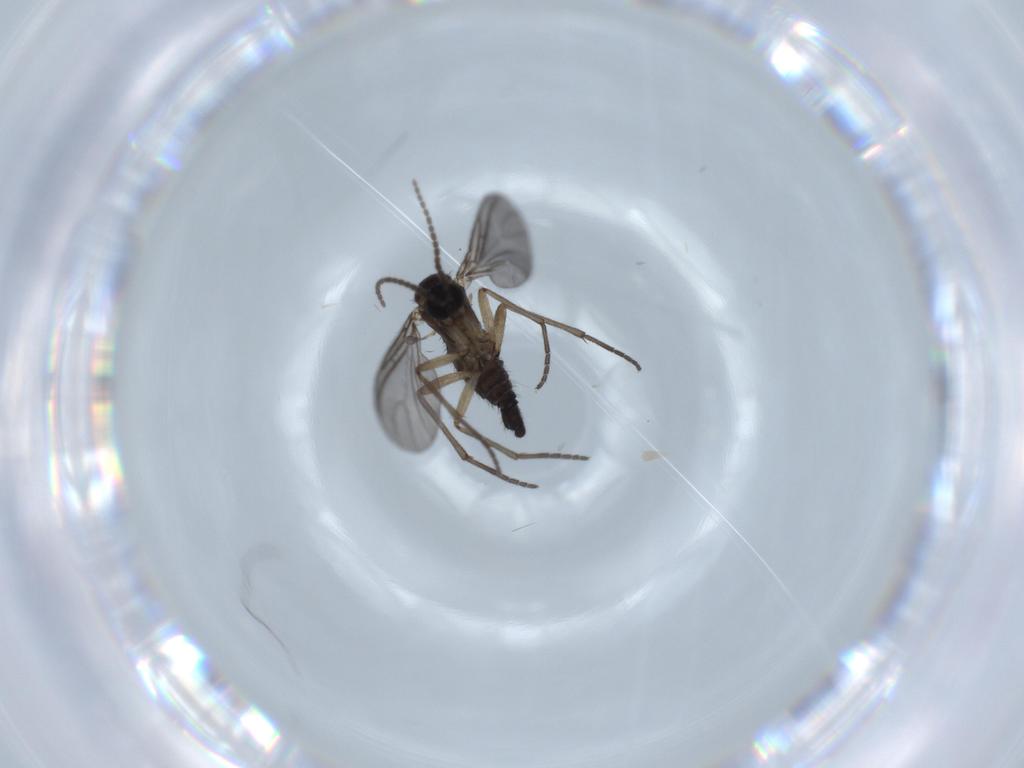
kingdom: Animalia
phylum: Arthropoda
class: Insecta
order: Diptera
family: Sciaridae
